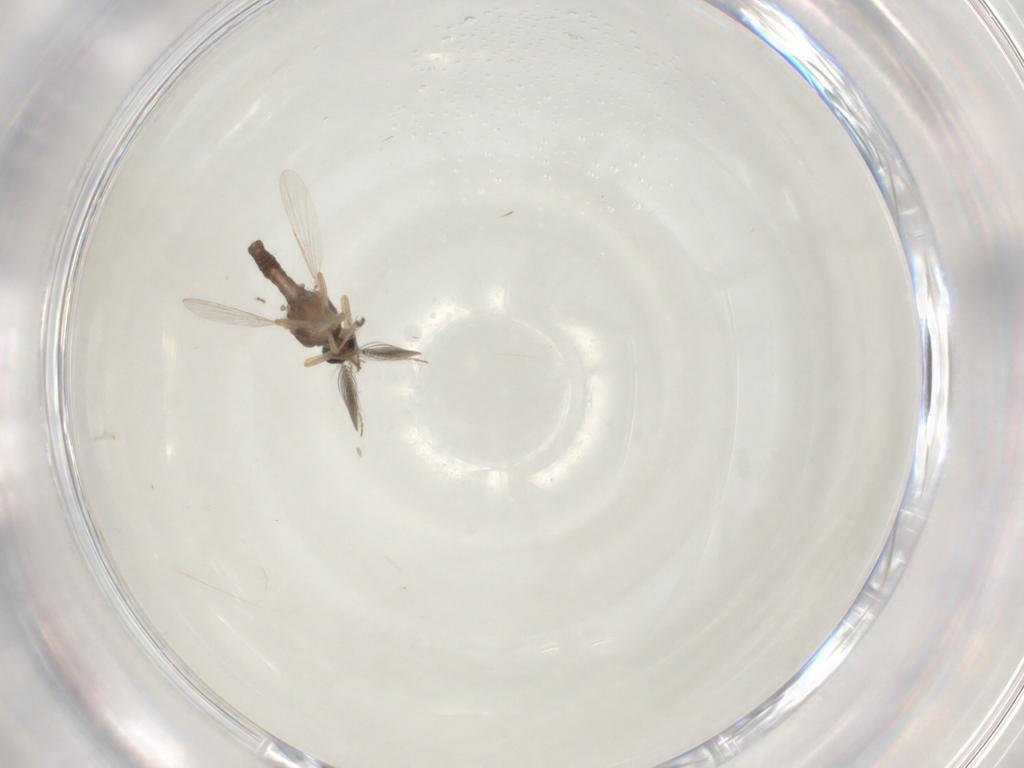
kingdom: Animalia
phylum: Arthropoda
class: Insecta
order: Diptera
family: Ceratopogonidae
